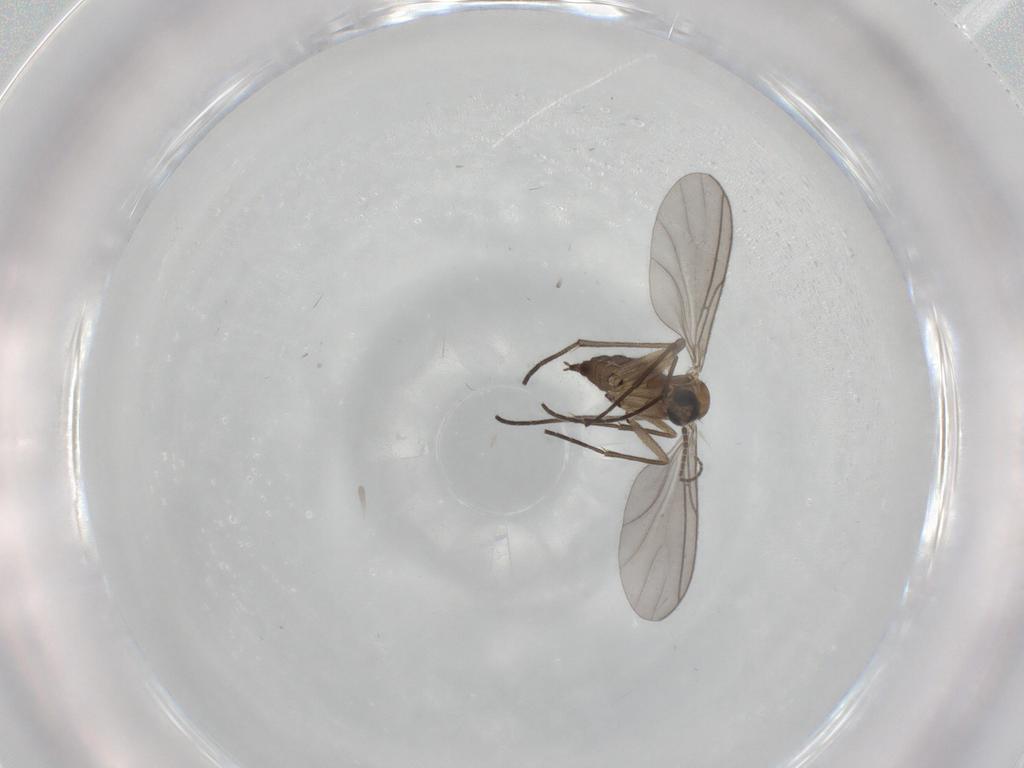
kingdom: Animalia
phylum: Arthropoda
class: Insecta
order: Diptera
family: Sciaridae
